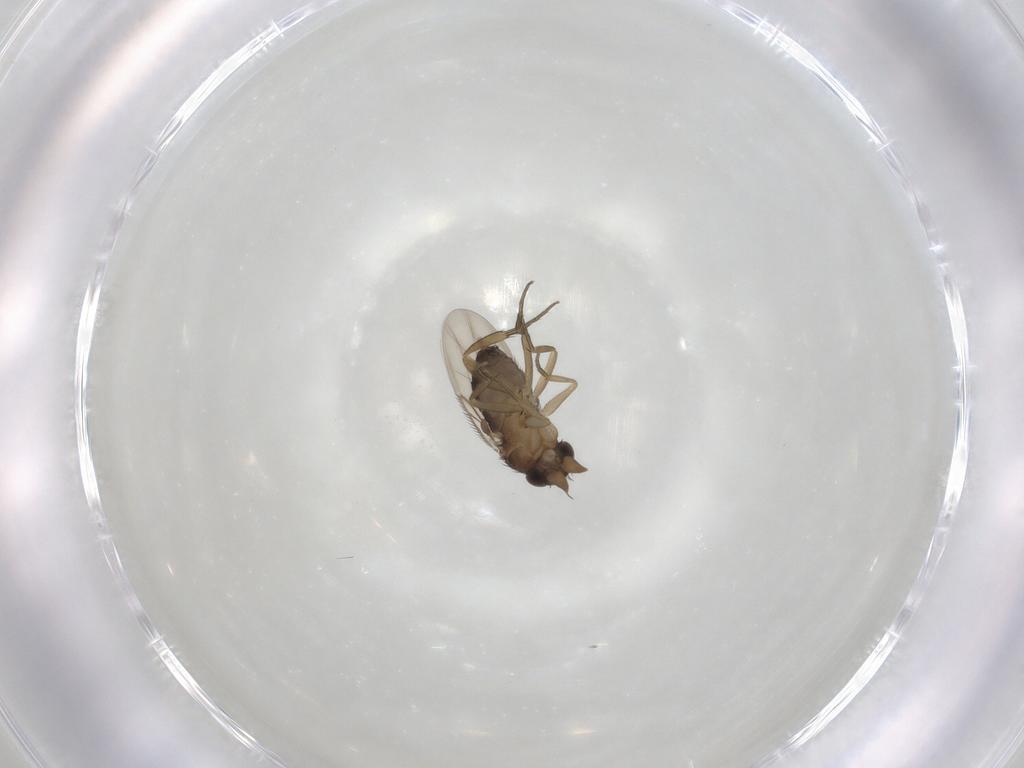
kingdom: Animalia
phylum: Arthropoda
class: Insecta
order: Diptera
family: Phoridae
